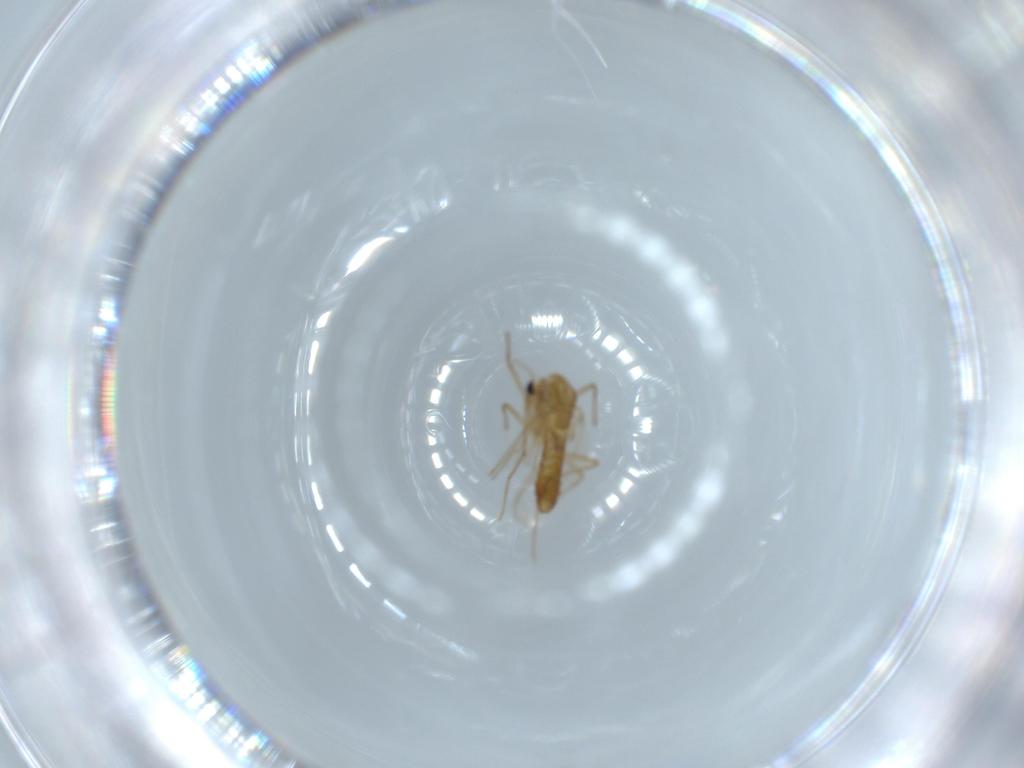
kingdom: Animalia
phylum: Arthropoda
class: Insecta
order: Diptera
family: Chironomidae
